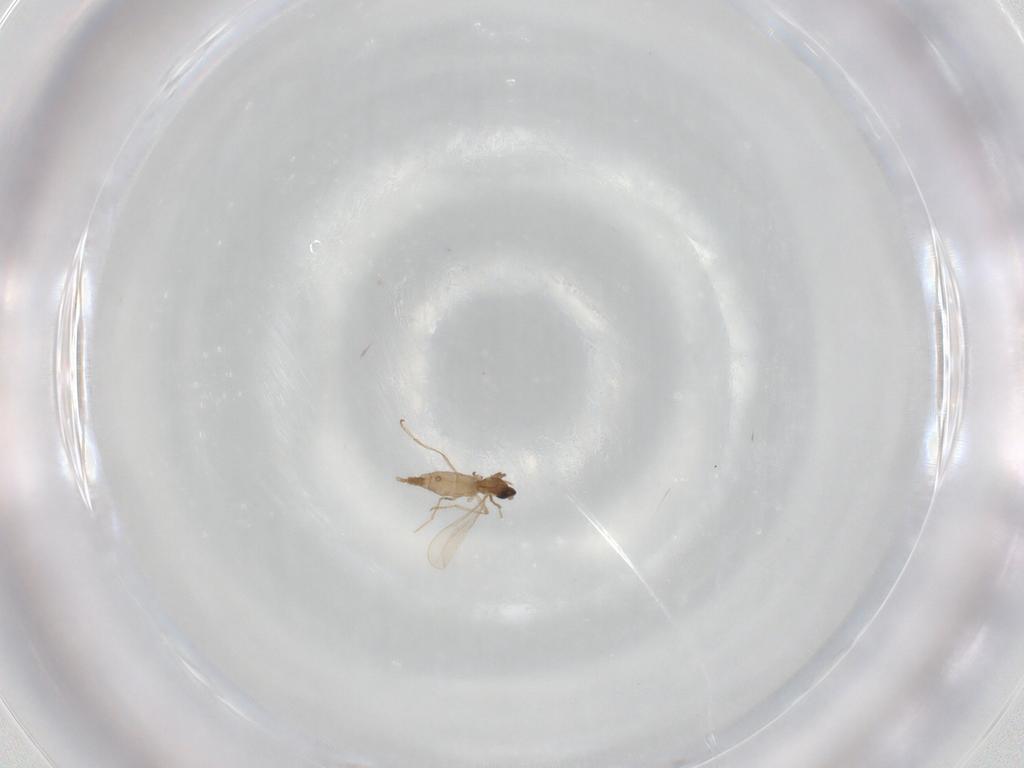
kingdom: Animalia
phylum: Arthropoda
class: Insecta
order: Diptera
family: Cecidomyiidae
